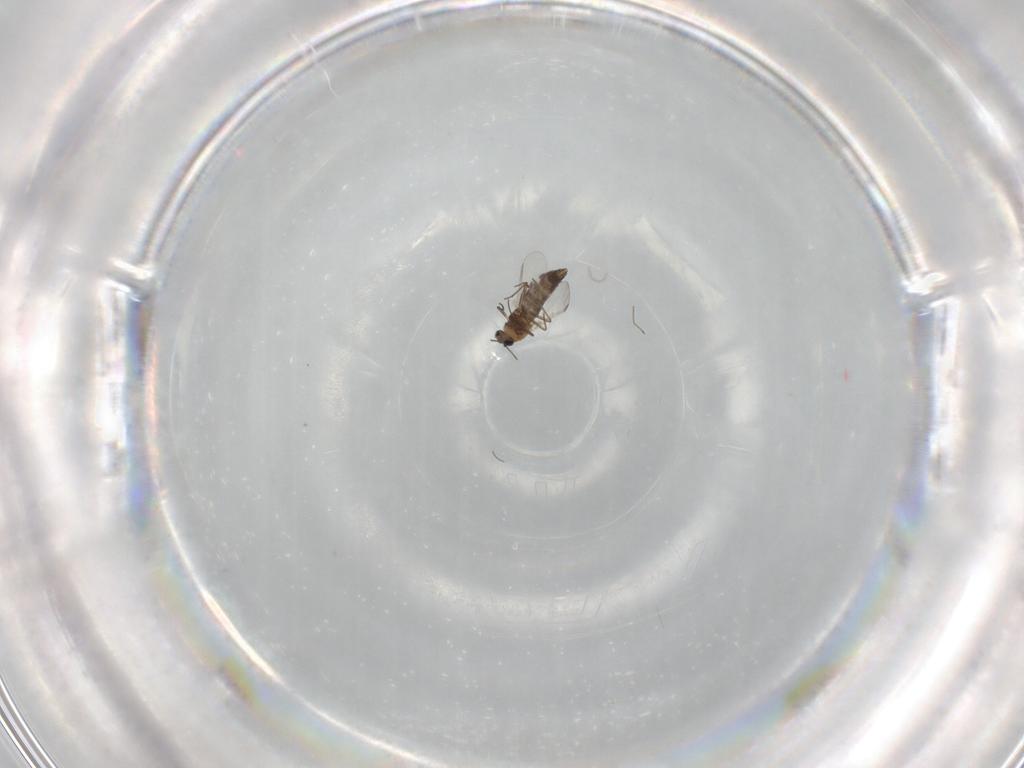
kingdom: Animalia
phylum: Arthropoda
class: Insecta
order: Diptera
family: Chironomidae
